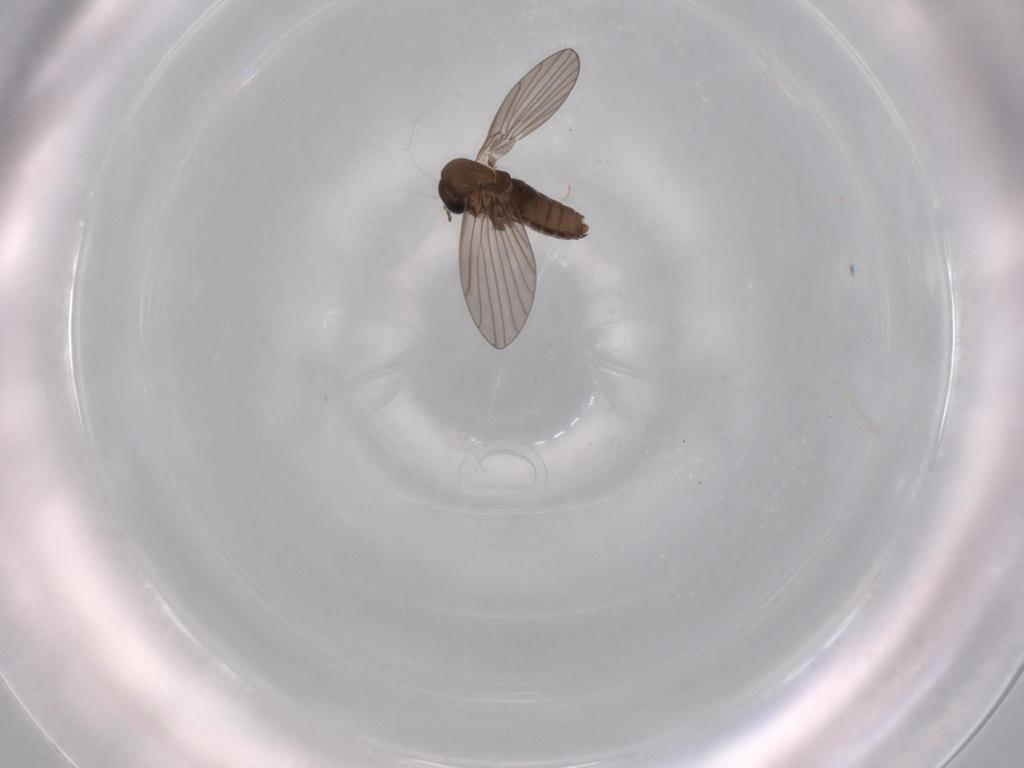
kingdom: Animalia
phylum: Arthropoda
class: Insecta
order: Diptera
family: Psychodidae
